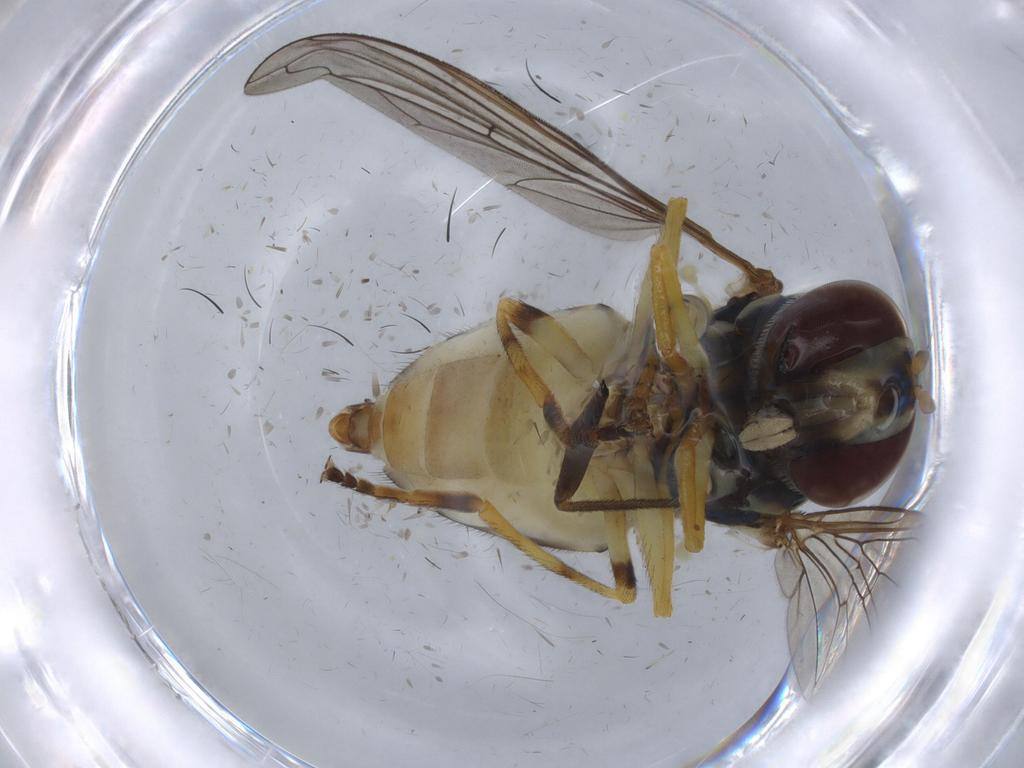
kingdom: Animalia
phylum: Arthropoda
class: Insecta
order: Diptera
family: Syrphidae
